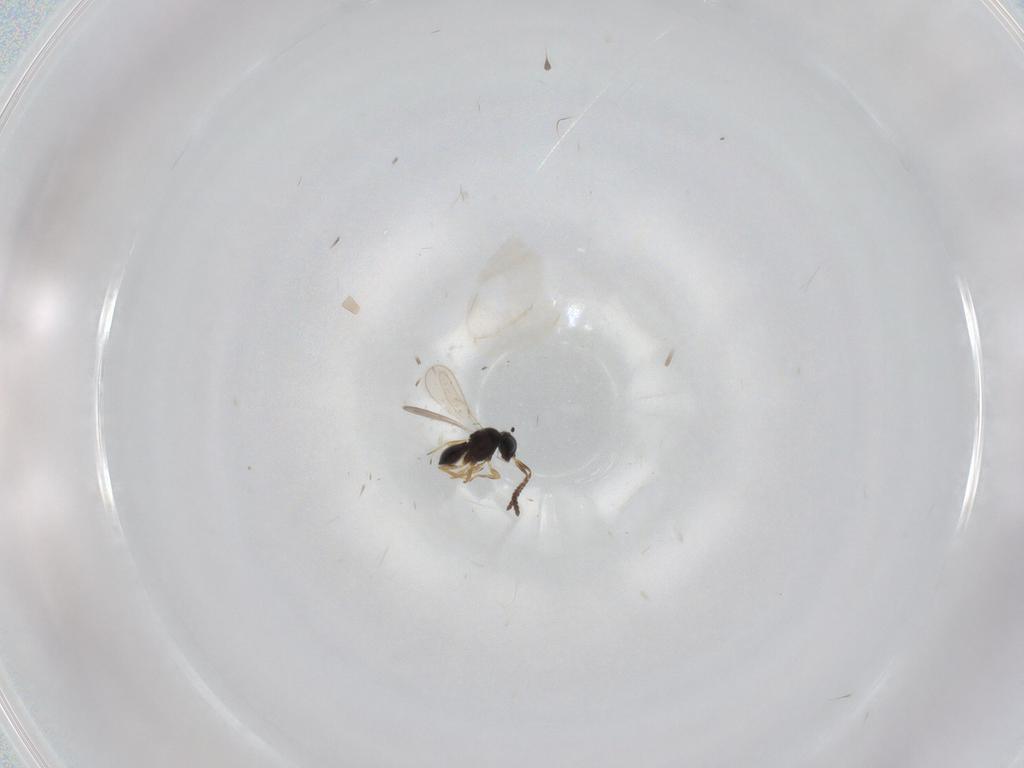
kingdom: Animalia
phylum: Arthropoda
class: Insecta
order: Hymenoptera
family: Scelionidae
